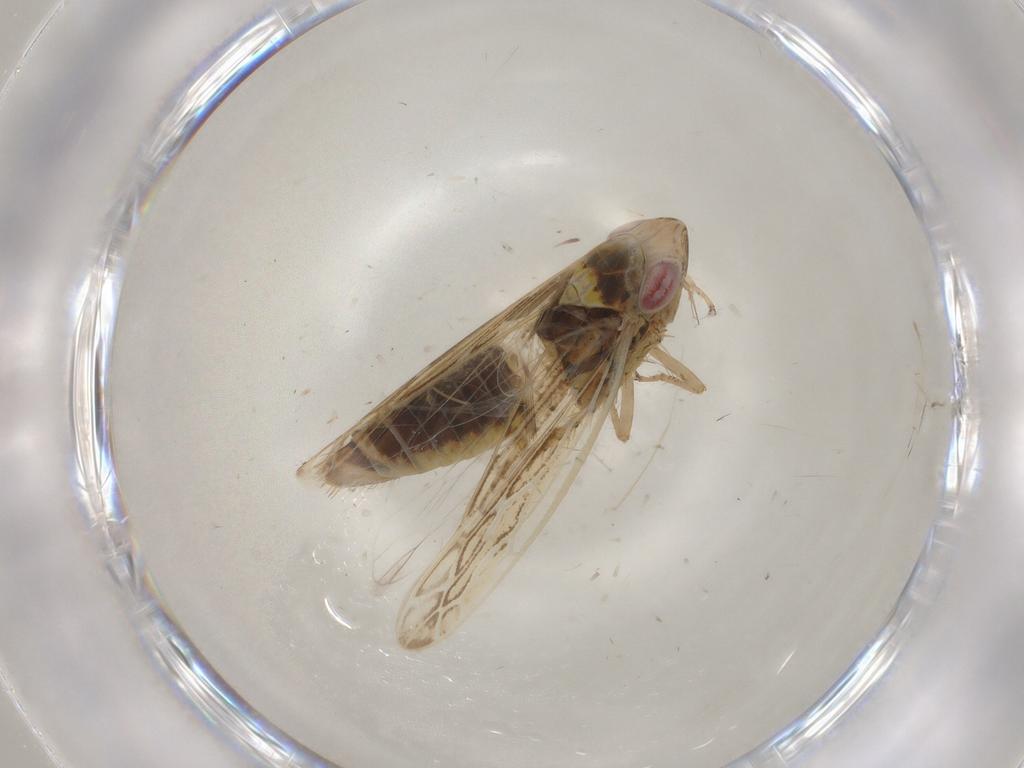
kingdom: Animalia
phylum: Arthropoda
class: Insecta
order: Hemiptera
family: Cicadellidae
